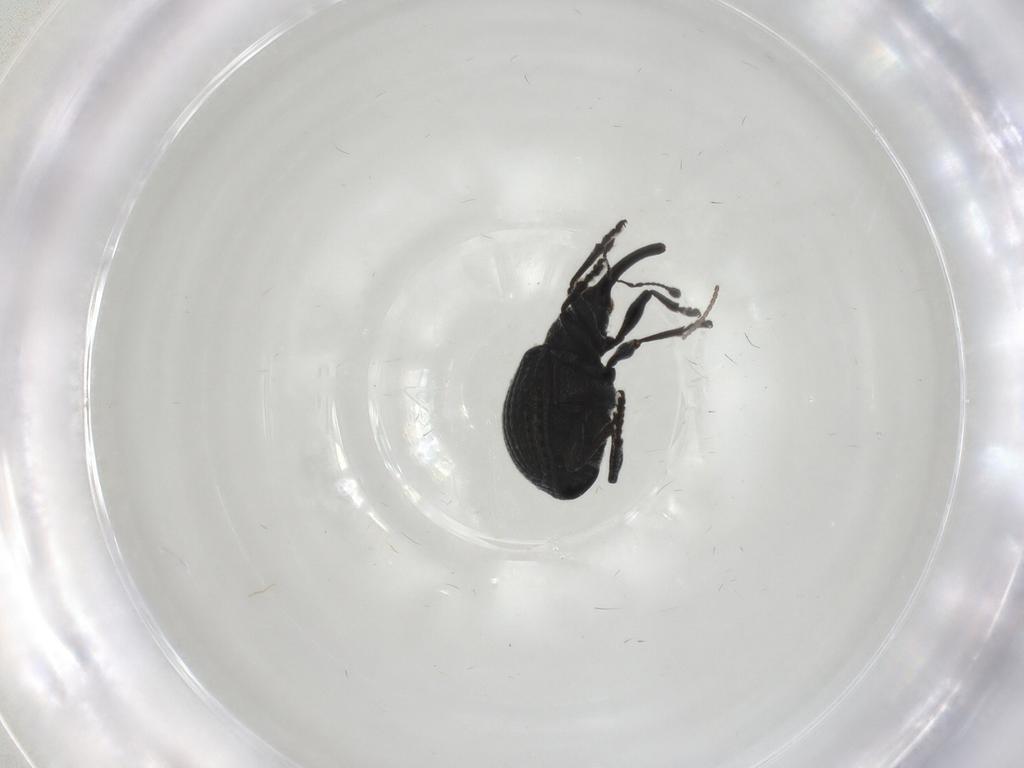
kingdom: Animalia
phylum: Arthropoda
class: Insecta
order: Coleoptera
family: Brentidae
